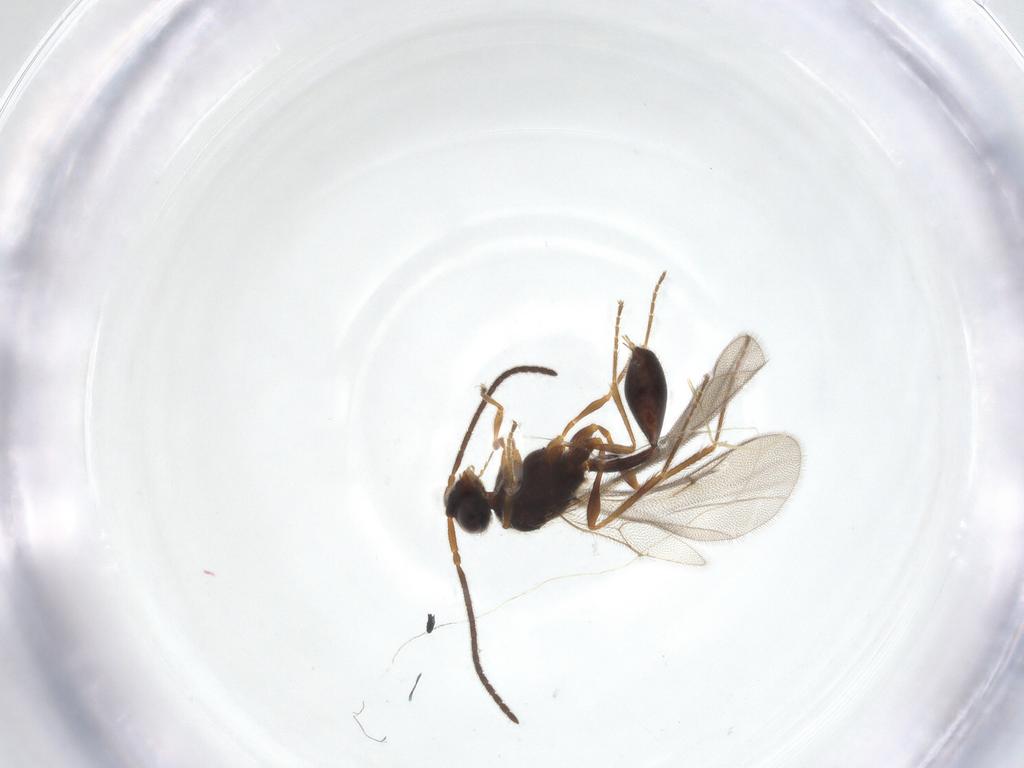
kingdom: Animalia
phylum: Arthropoda
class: Insecta
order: Hymenoptera
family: Diapriidae
